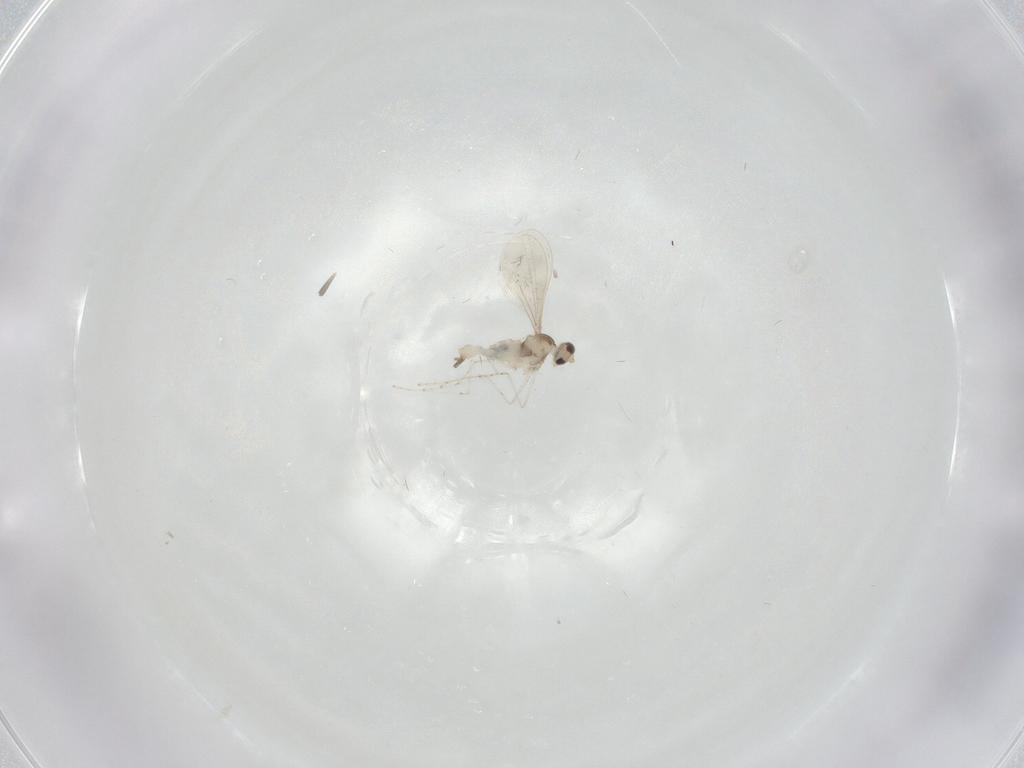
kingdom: Animalia
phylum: Arthropoda
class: Insecta
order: Diptera
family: Cecidomyiidae
